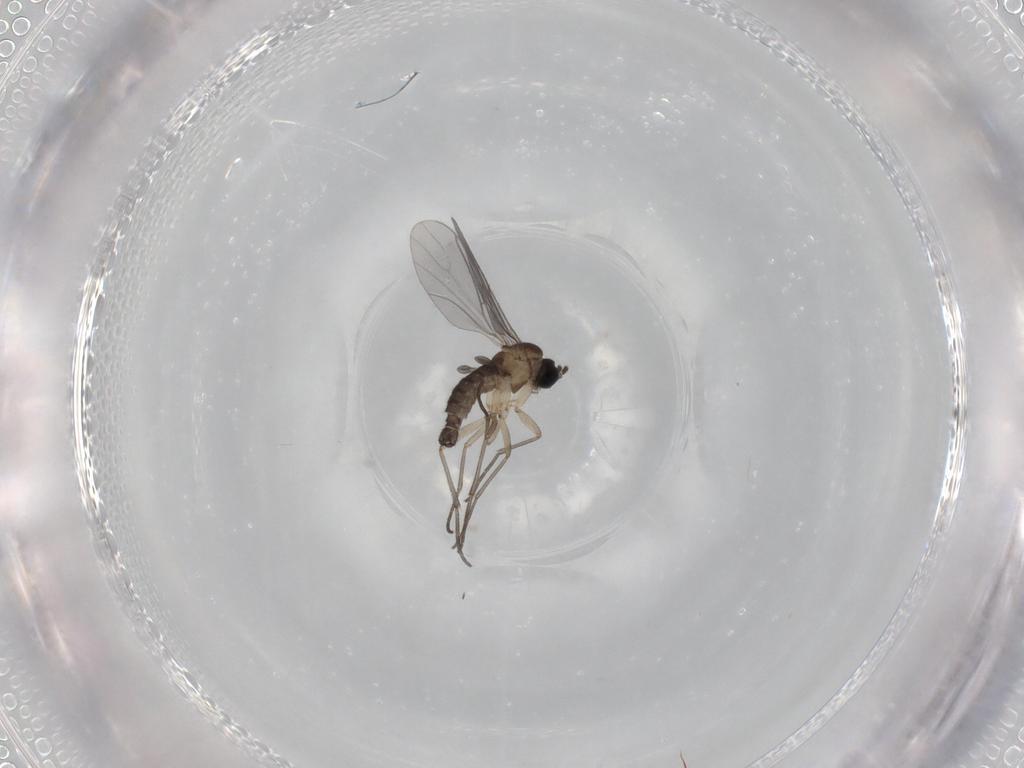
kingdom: Animalia
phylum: Arthropoda
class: Insecta
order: Diptera
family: Sciaridae
